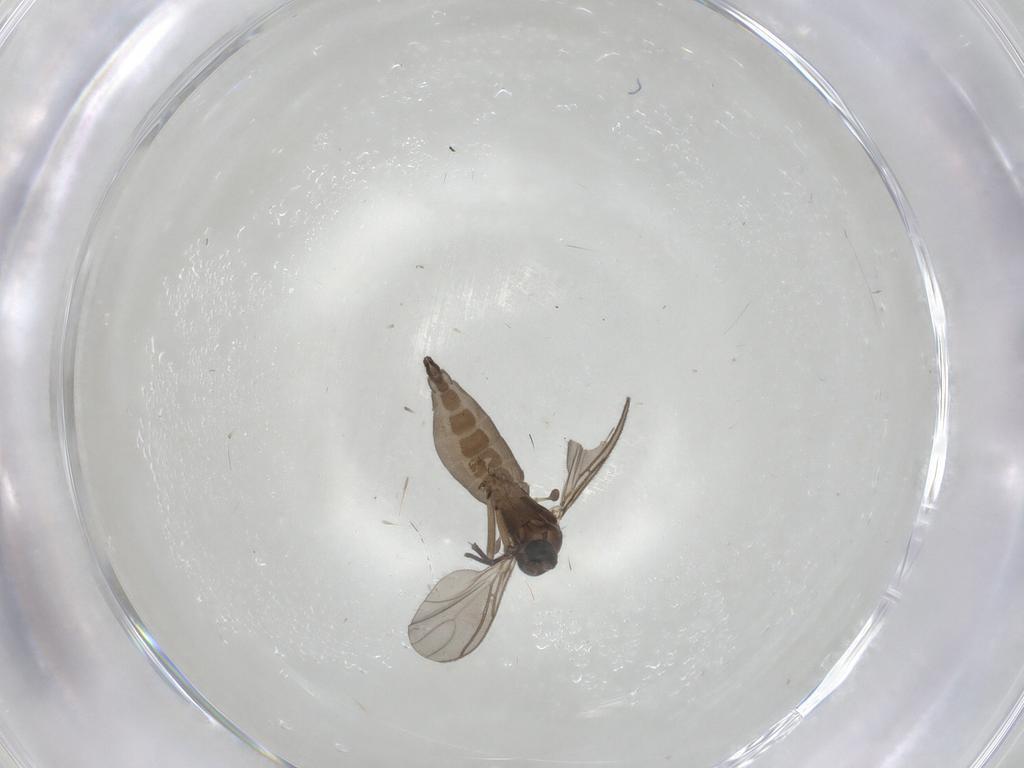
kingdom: Animalia
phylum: Arthropoda
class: Insecta
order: Diptera
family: Sciaridae
